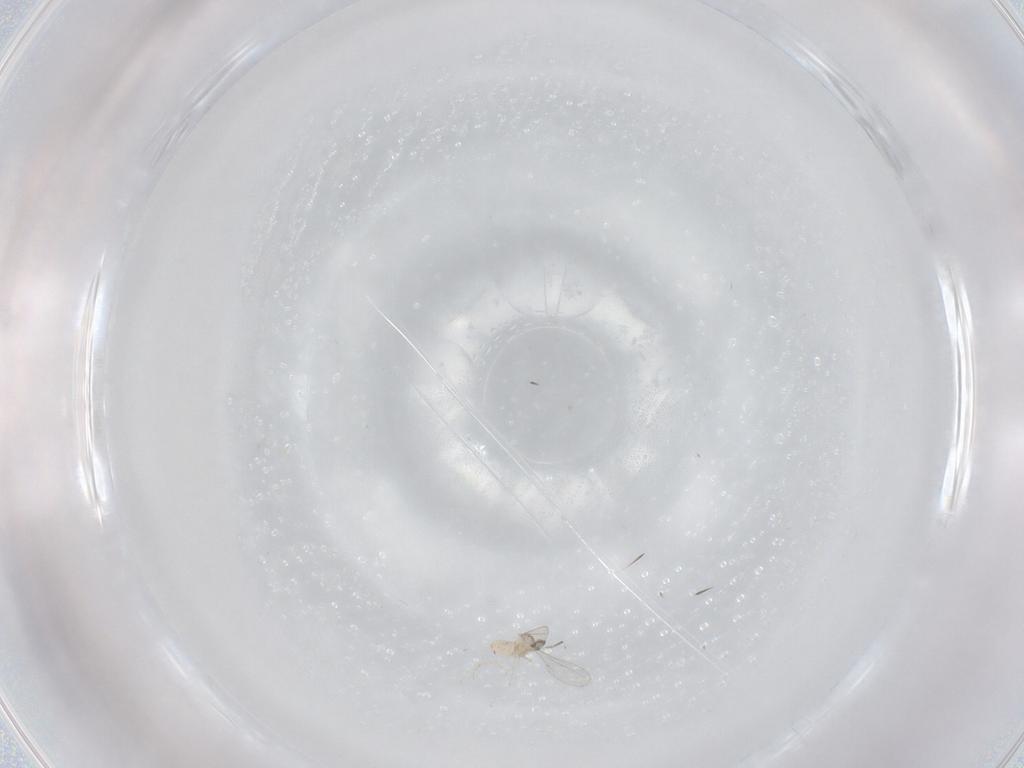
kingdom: Animalia
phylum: Arthropoda
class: Insecta
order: Diptera
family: Cecidomyiidae
